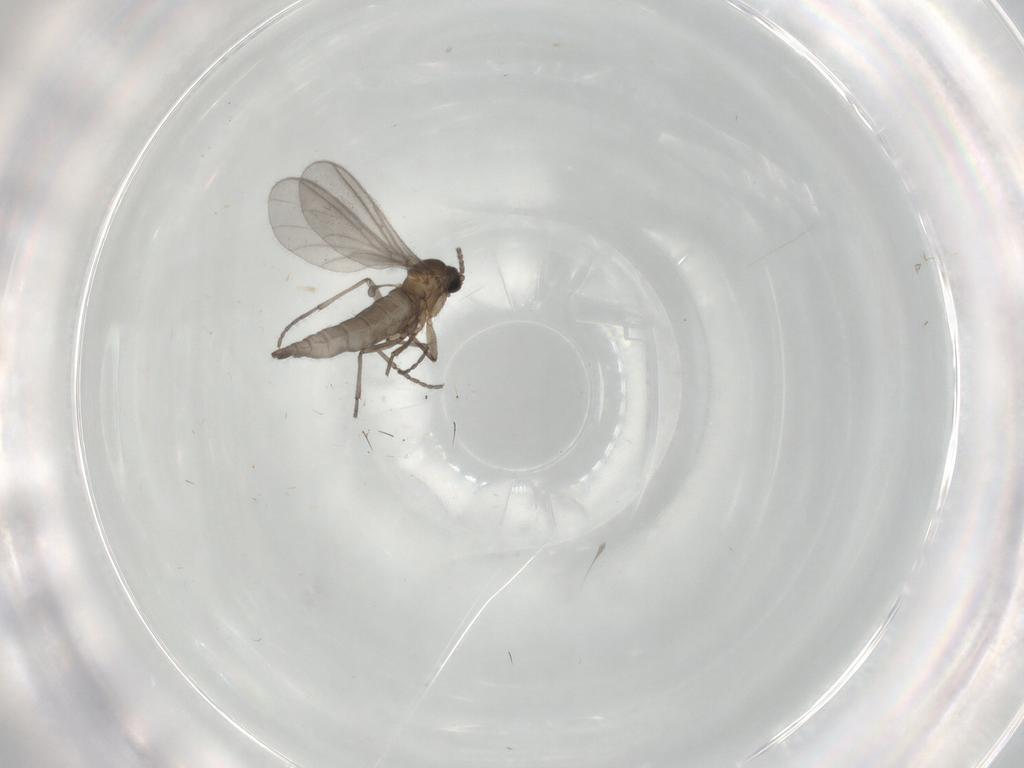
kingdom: Animalia
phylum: Arthropoda
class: Insecta
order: Diptera
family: Sciaridae
